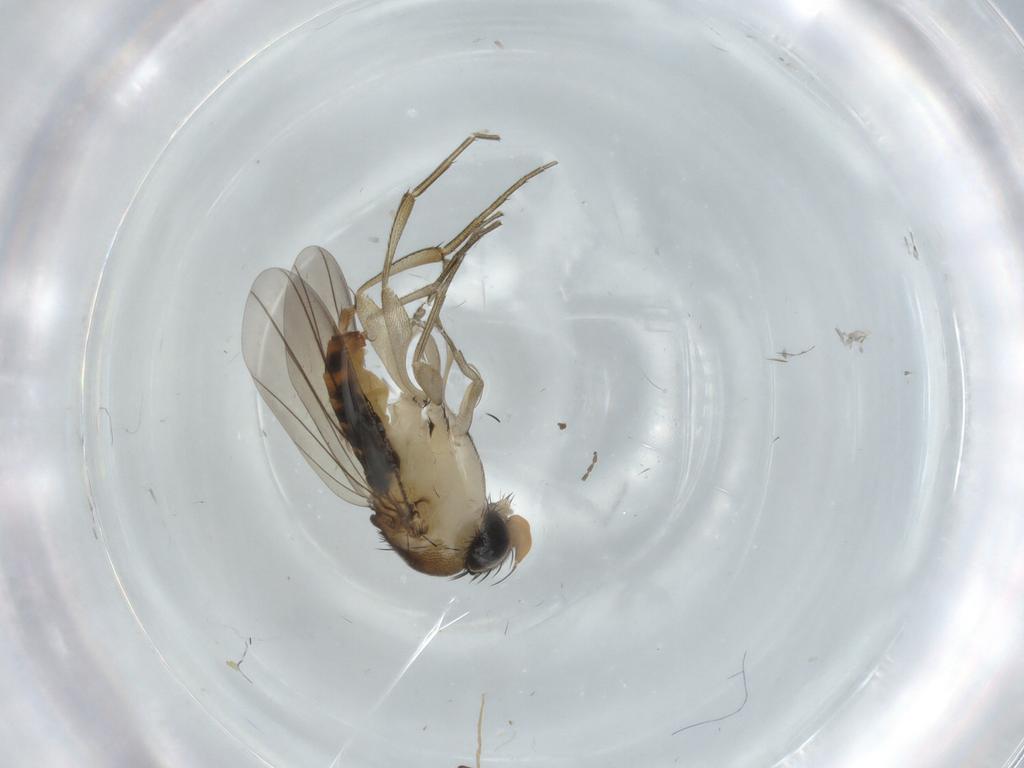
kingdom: Animalia
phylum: Arthropoda
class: Insecta
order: Diptera
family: Phoridae
